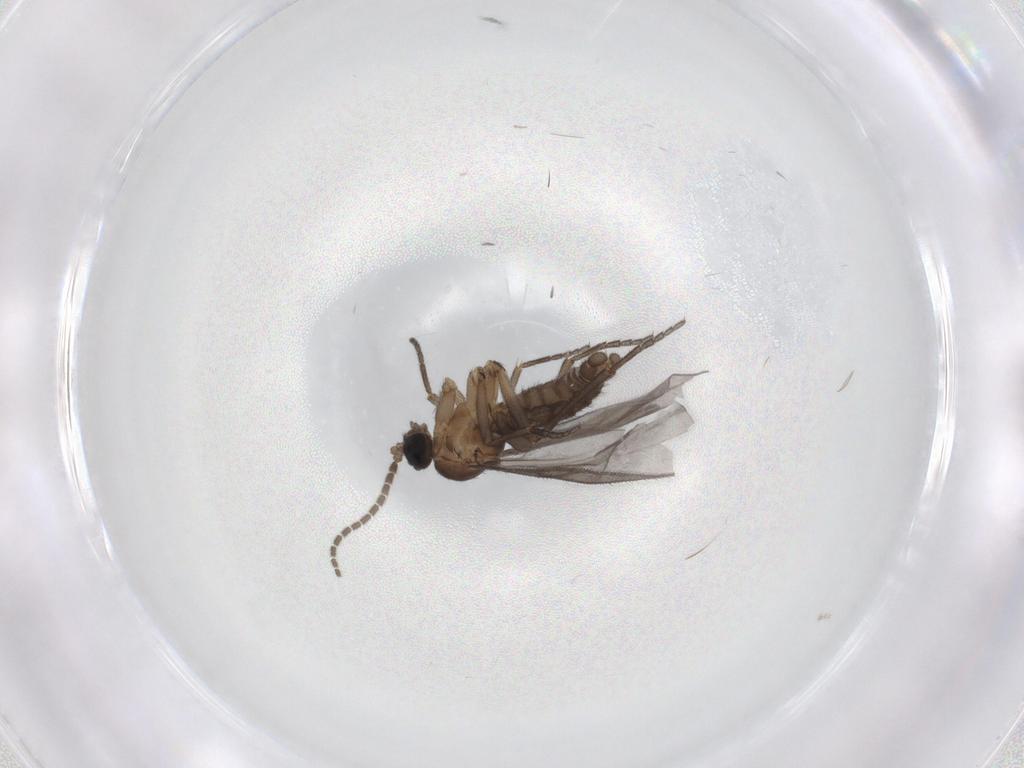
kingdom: Animalia
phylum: Arthropoda
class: Insecta
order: Diptera
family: Sciaridae
